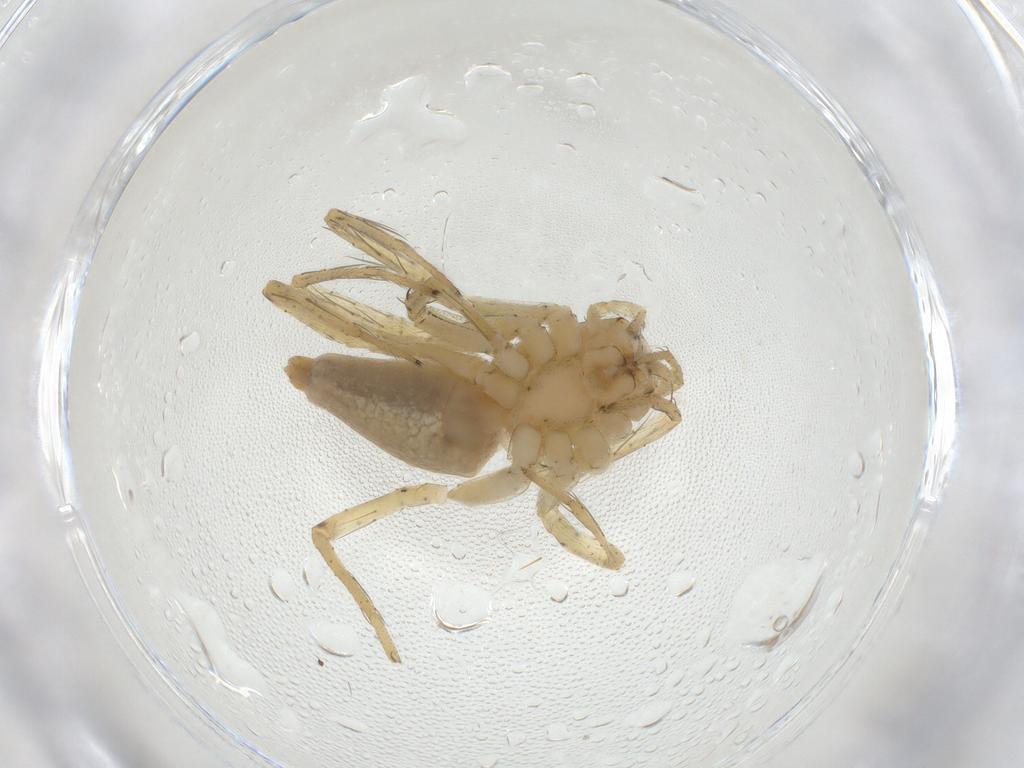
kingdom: Animalia
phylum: Arthropoda
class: Arachnida
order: Araneae
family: Oxyopidae
